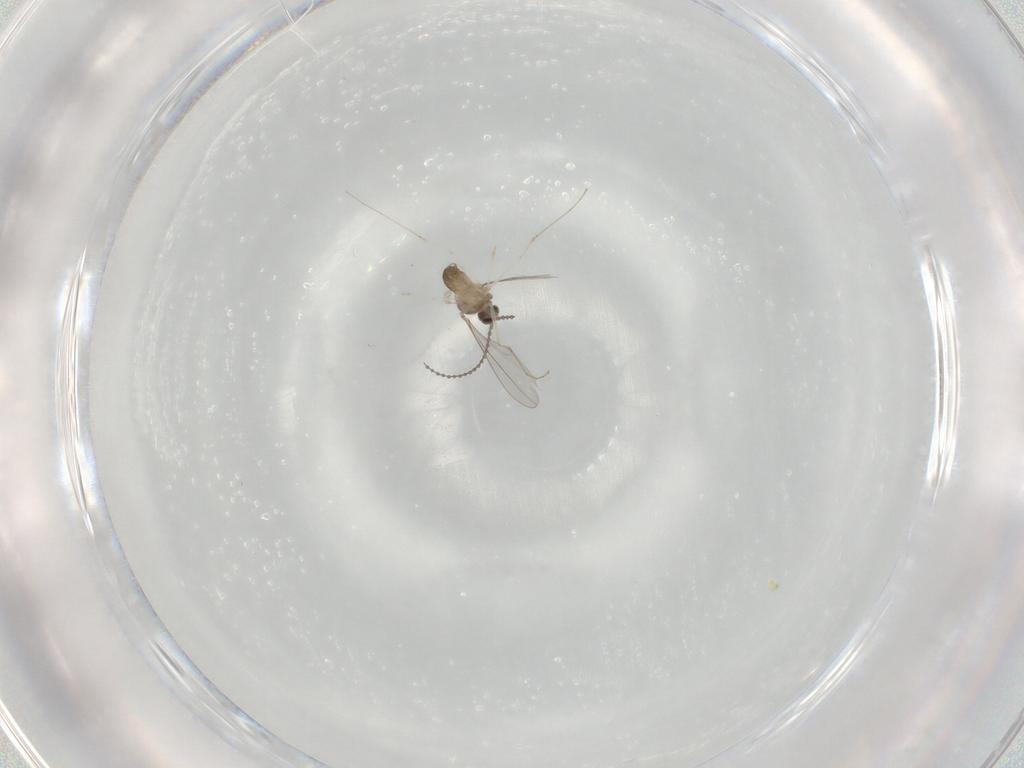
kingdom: Animalia
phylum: Arthropoda
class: Insecta
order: Diptera
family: Cecidomyiidae
